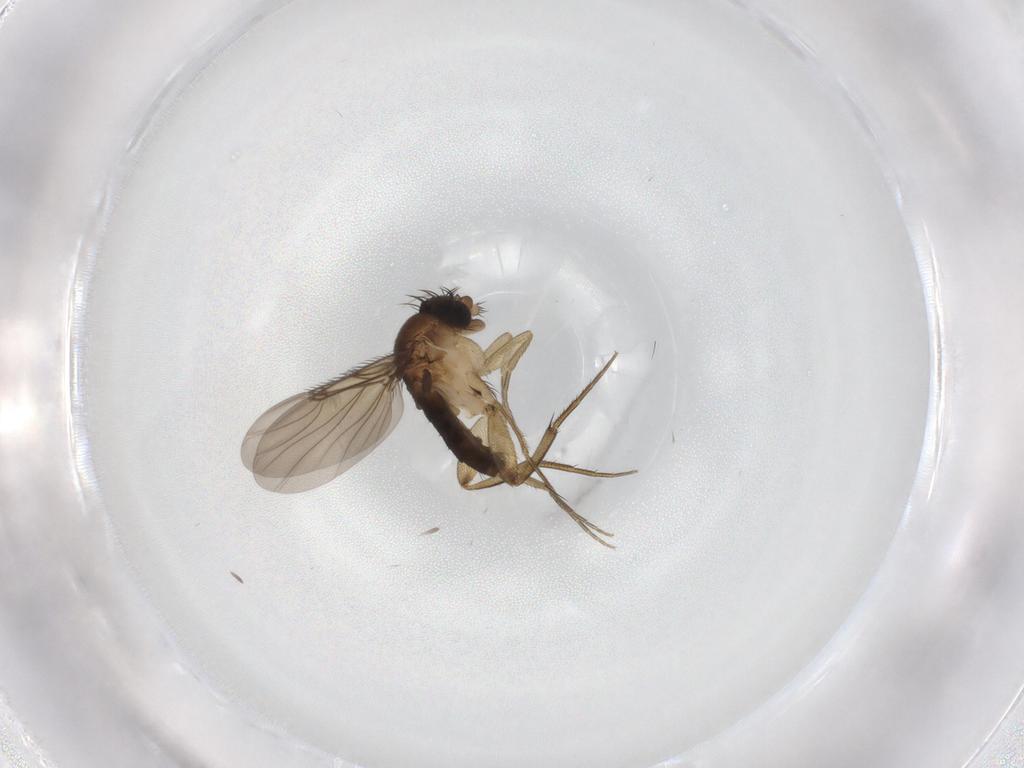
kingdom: Animalia
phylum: Arthropoda
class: Insecta
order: Diptera
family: Phoridae
